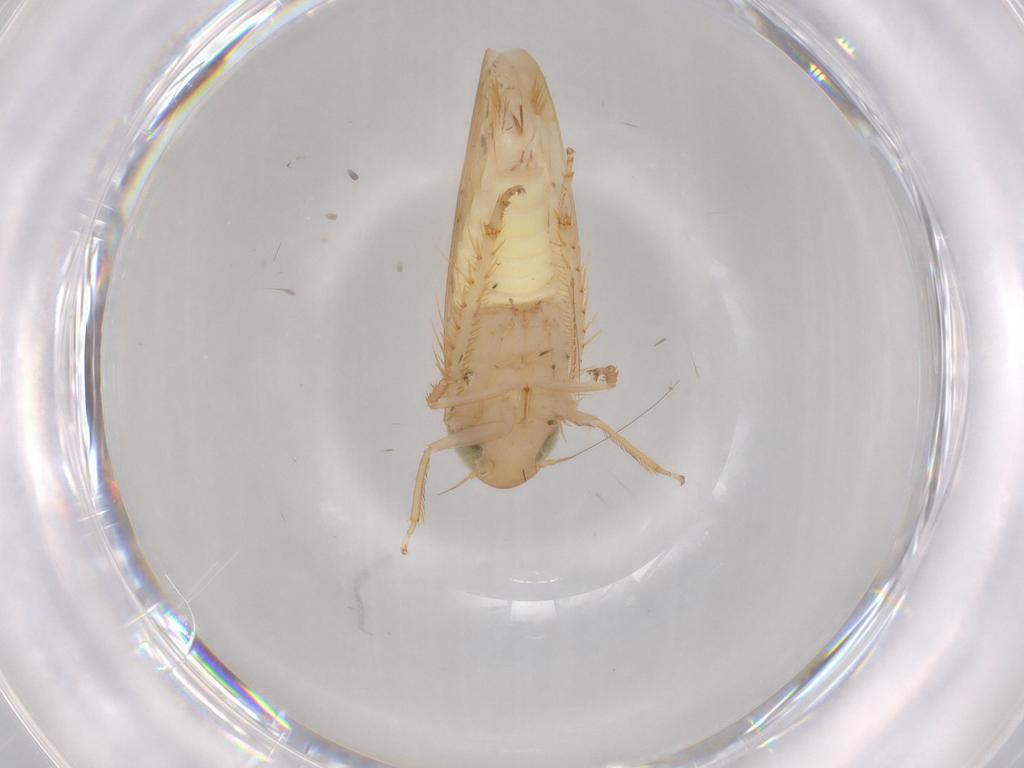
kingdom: Animalia
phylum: Arthropoda
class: Insecta
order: Hemiptera
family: Cicadellidae
